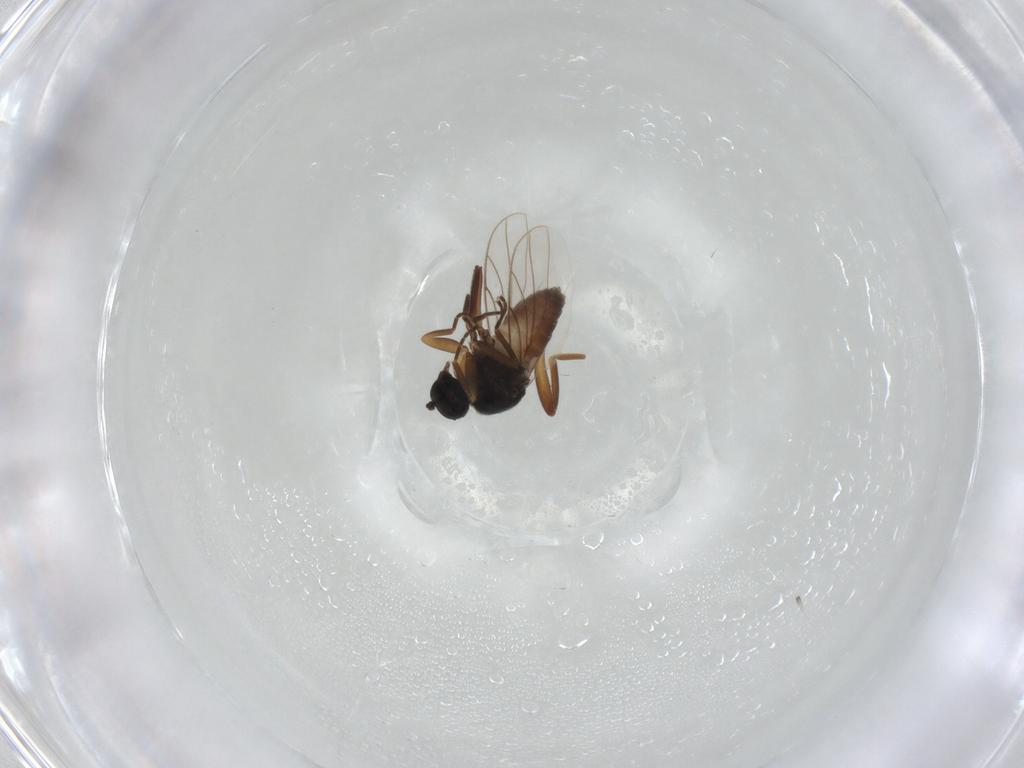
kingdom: Animalia
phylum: Arthropoda
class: Insecta
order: Diptera
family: Hybotidae
